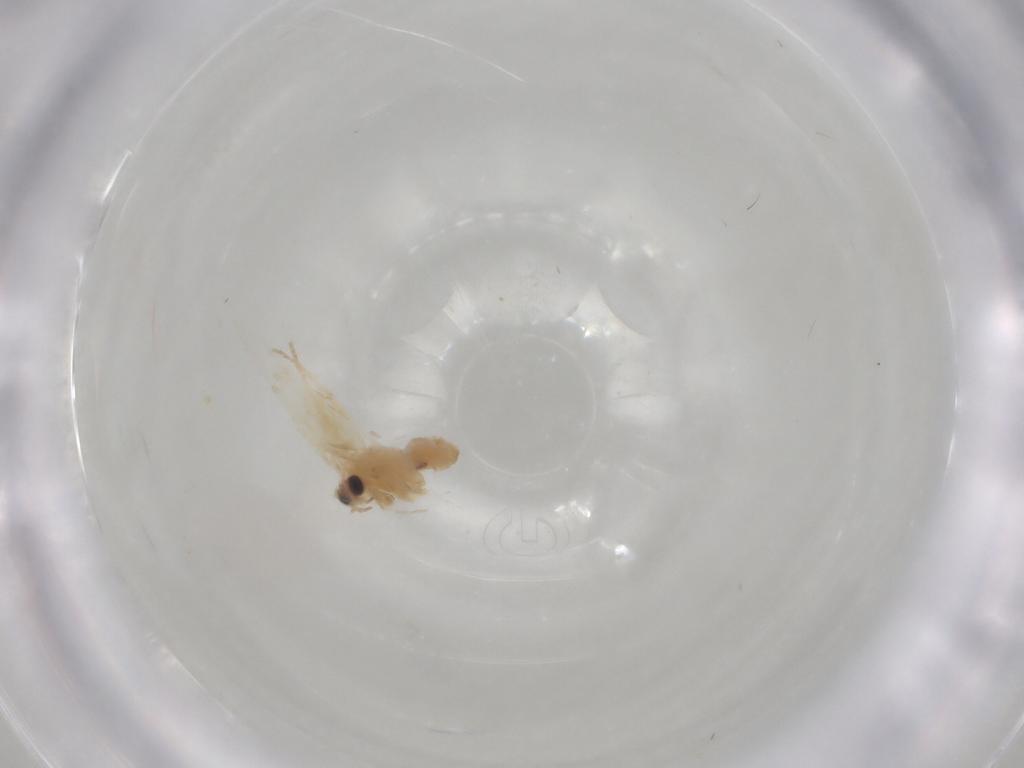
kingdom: Animalia
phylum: Arthropoda
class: Insecta
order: Lepidoptera
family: Nepticulidae
